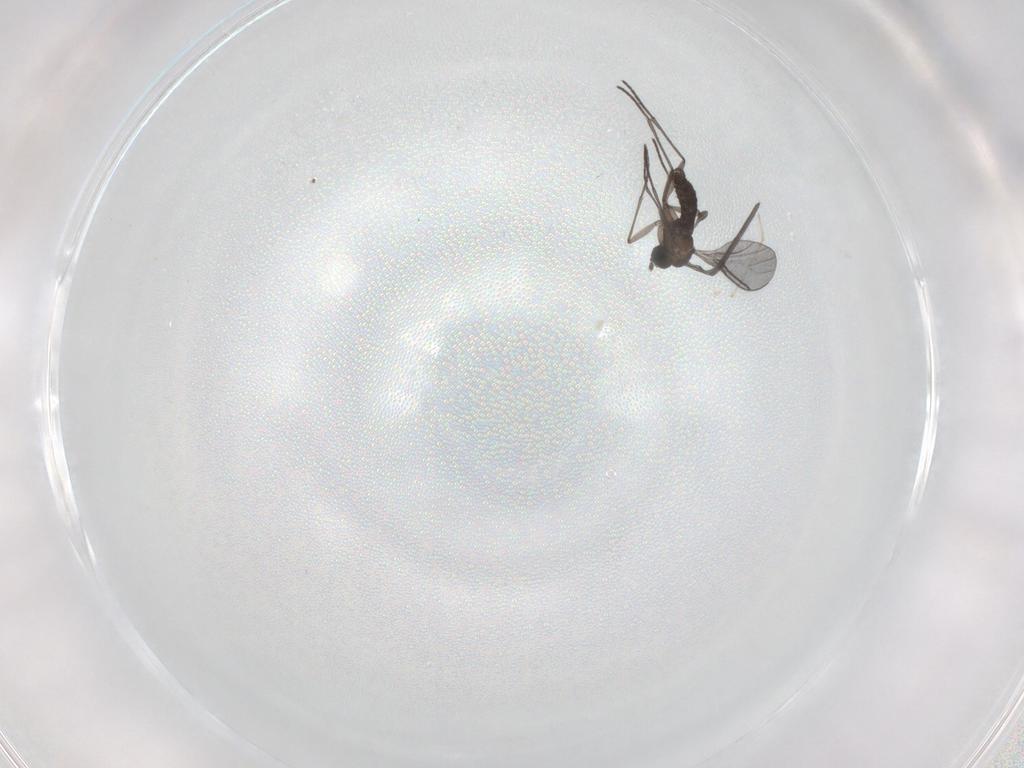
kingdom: Animalia
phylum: Arthropoda
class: Insecta
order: Diptera
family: Cecidomyiidae
